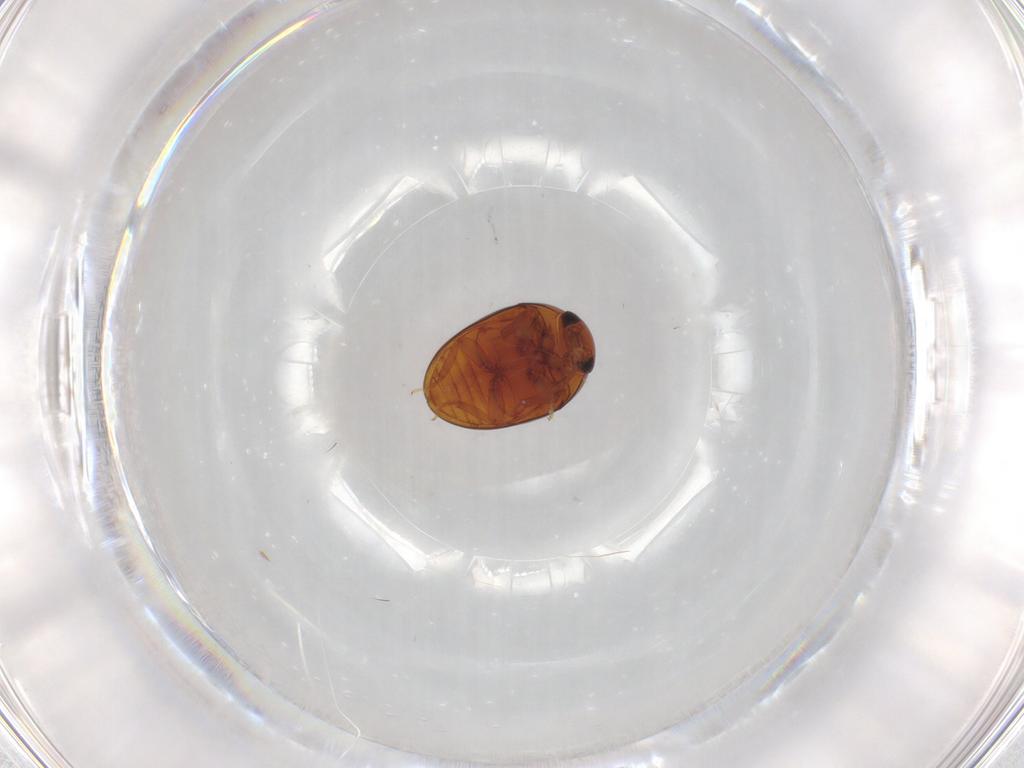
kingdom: Animalia
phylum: Arthropoda
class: Insecta
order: Coleoptera
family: Phalacridae
